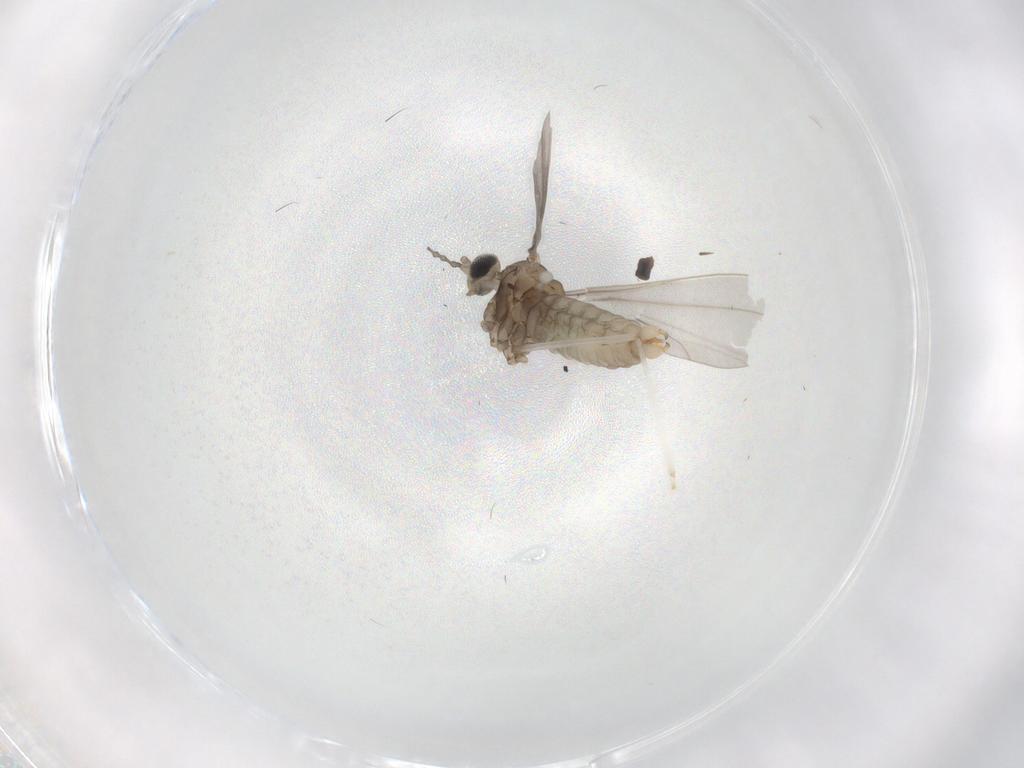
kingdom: Animalia
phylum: Arthropoda
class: Insecta
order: Diptera
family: Cecidomyiidae
